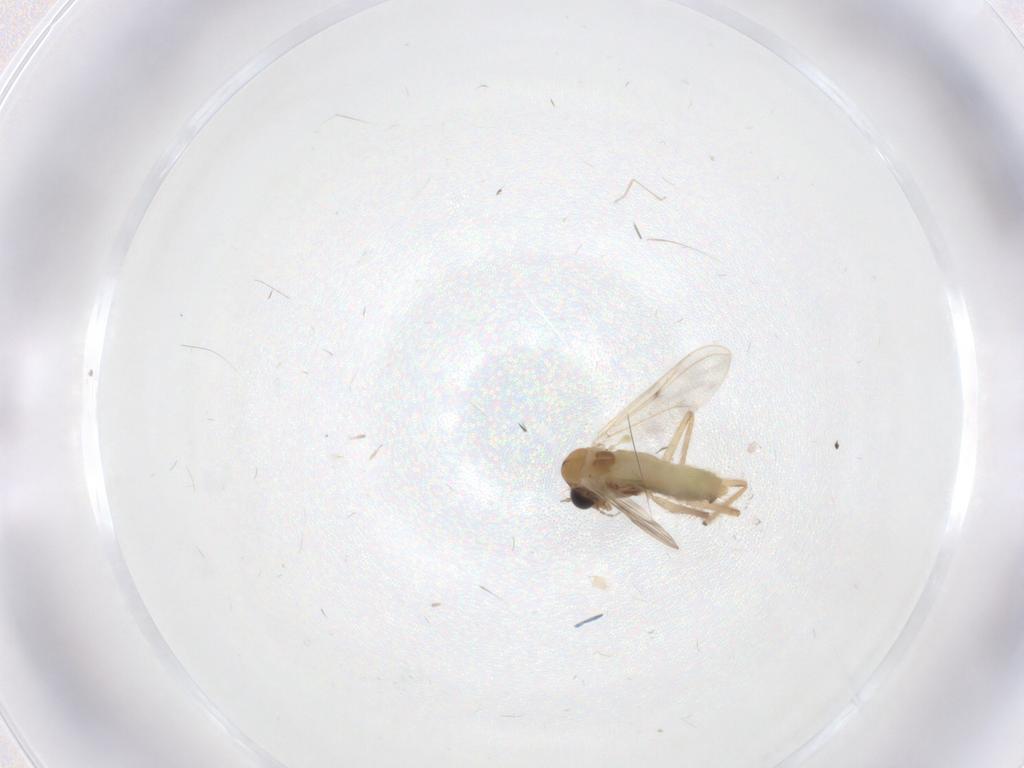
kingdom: Animalia
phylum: Arthropoda
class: Insecta
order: Diptera
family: Chironomidae
